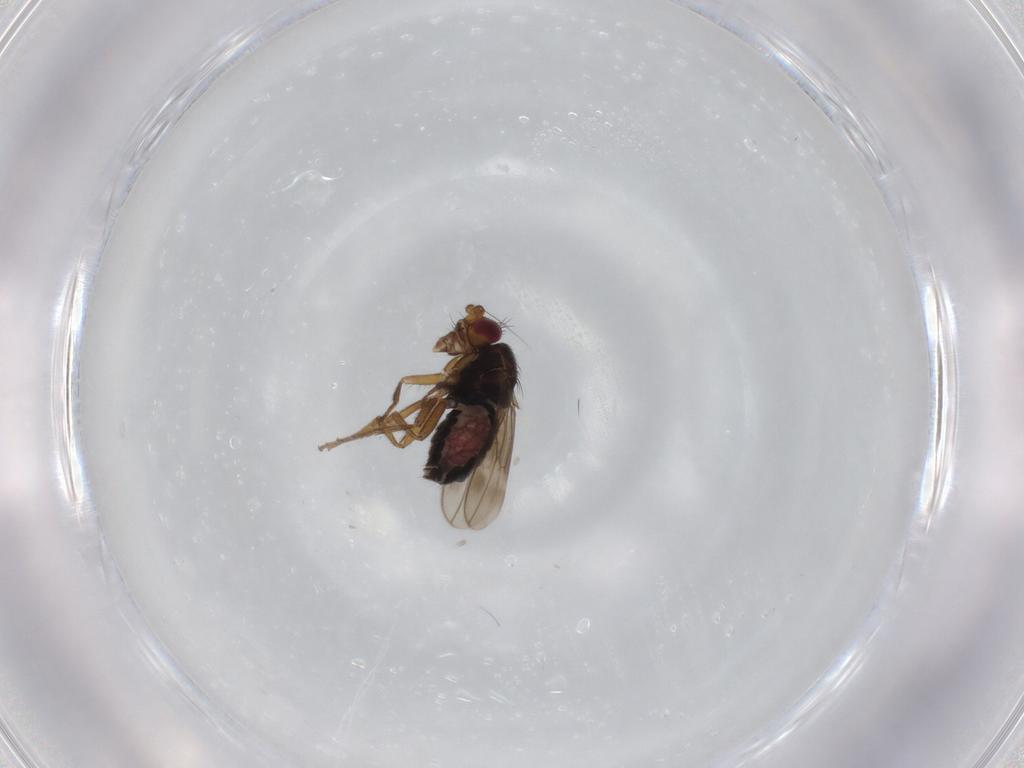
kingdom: Animalia
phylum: Arthropoda
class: Insecta
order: Diptera
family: Sphaeroceridae
